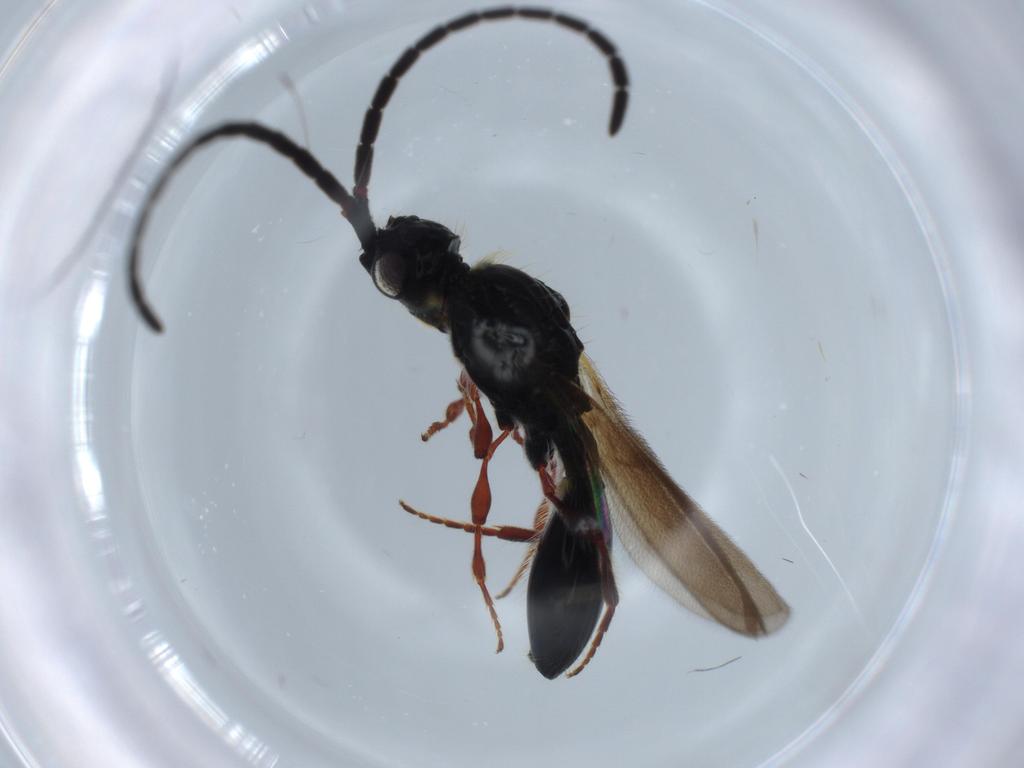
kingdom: Animalia
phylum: Arthropoda
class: Insecta
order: Hymenoptera
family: Diapriidae
